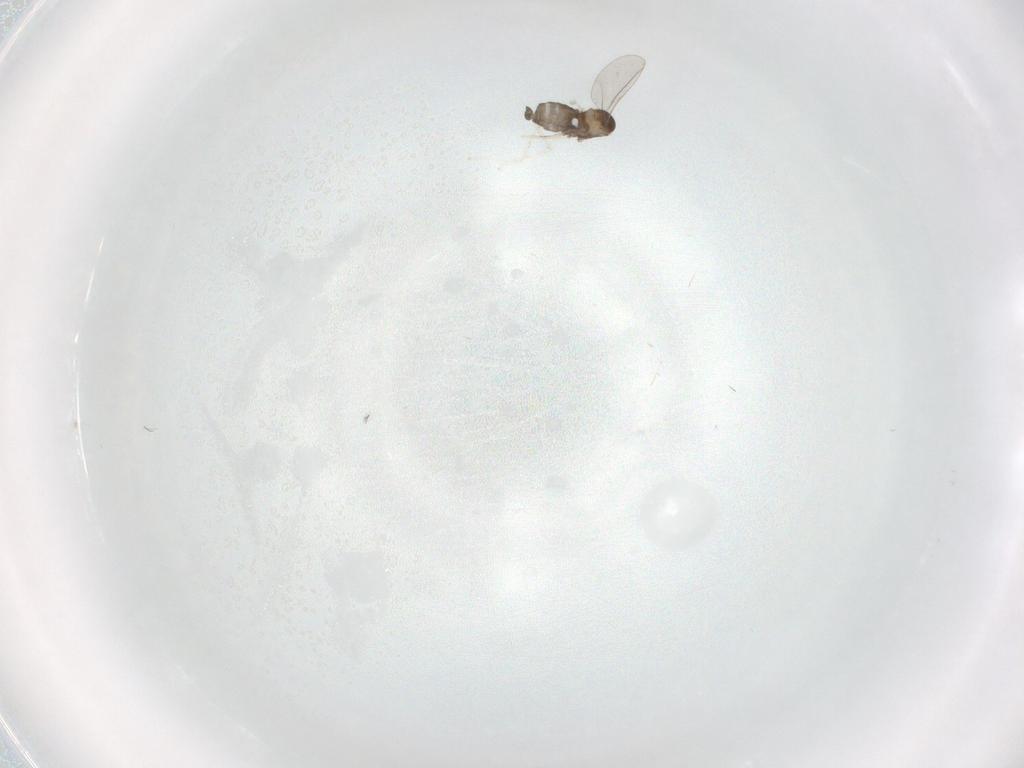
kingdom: Animalia
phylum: Arthropoda
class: Insecta
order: Diptera
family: Cecidomyiidae
